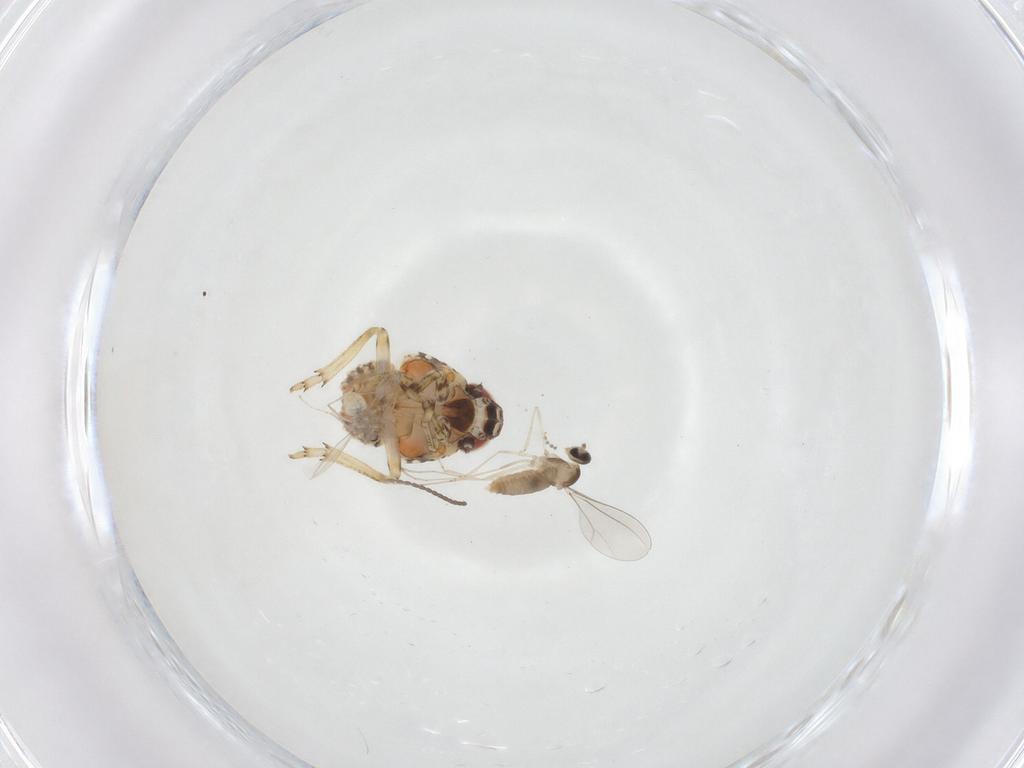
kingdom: Animalia
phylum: Arthropoda
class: Insecta
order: Diptera
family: Cecidomyiidae
